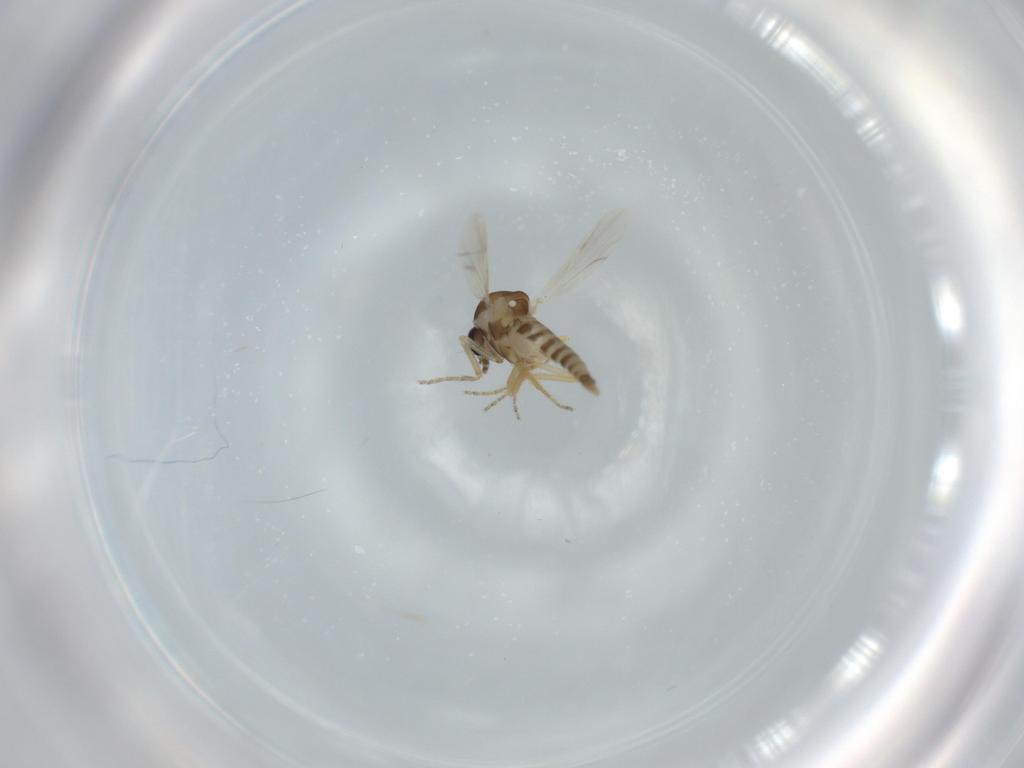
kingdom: Animalia
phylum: Arthropoda
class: Insecta
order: Diptera
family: Ceratopogonidae
